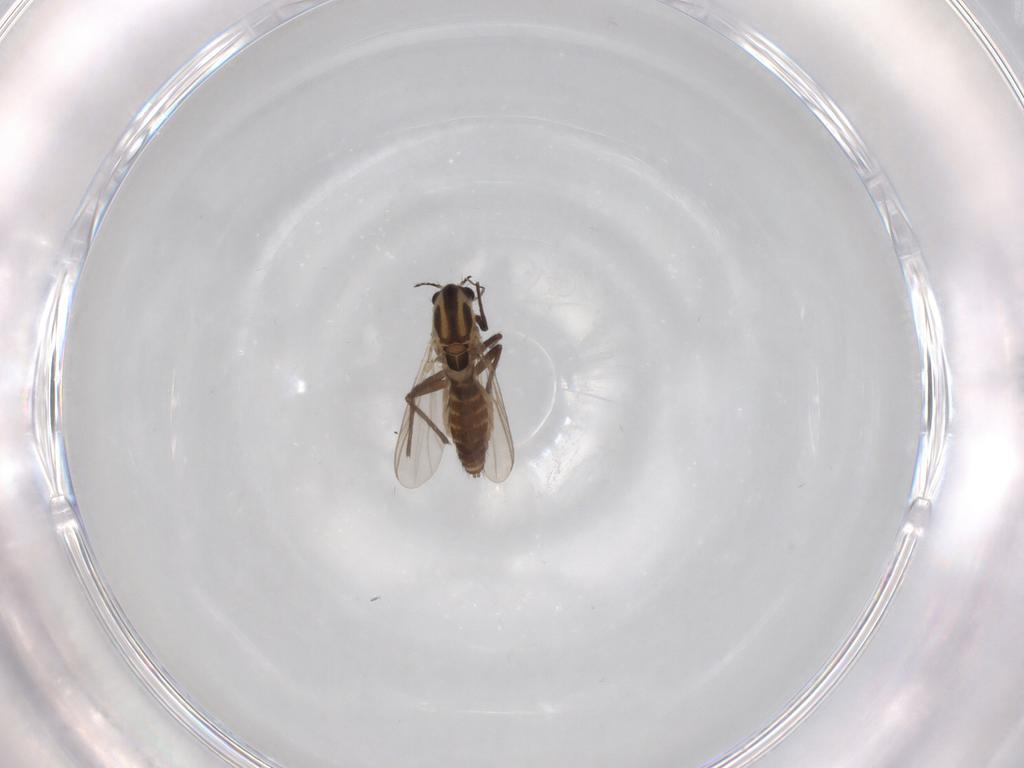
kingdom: Animalia
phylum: Arthropoda
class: Insecta
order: Diptera
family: Chironomidae
